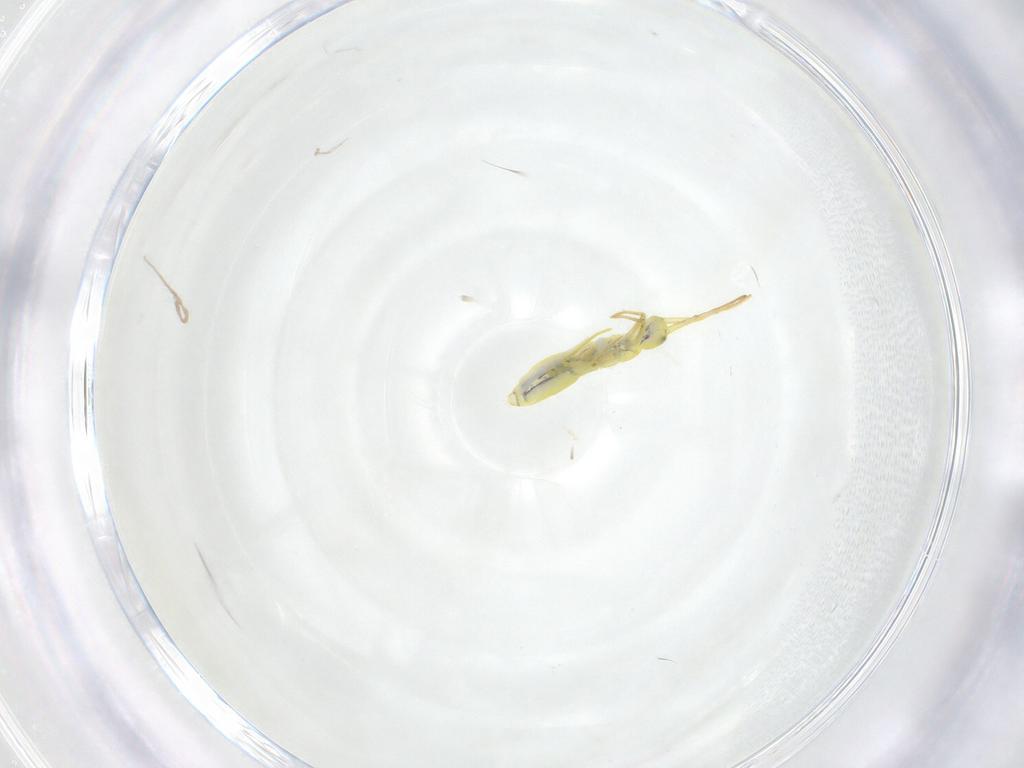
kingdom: Animalia
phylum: Arthropoda
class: Collembola
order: Entomobryomorpha
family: Entomobryidae
